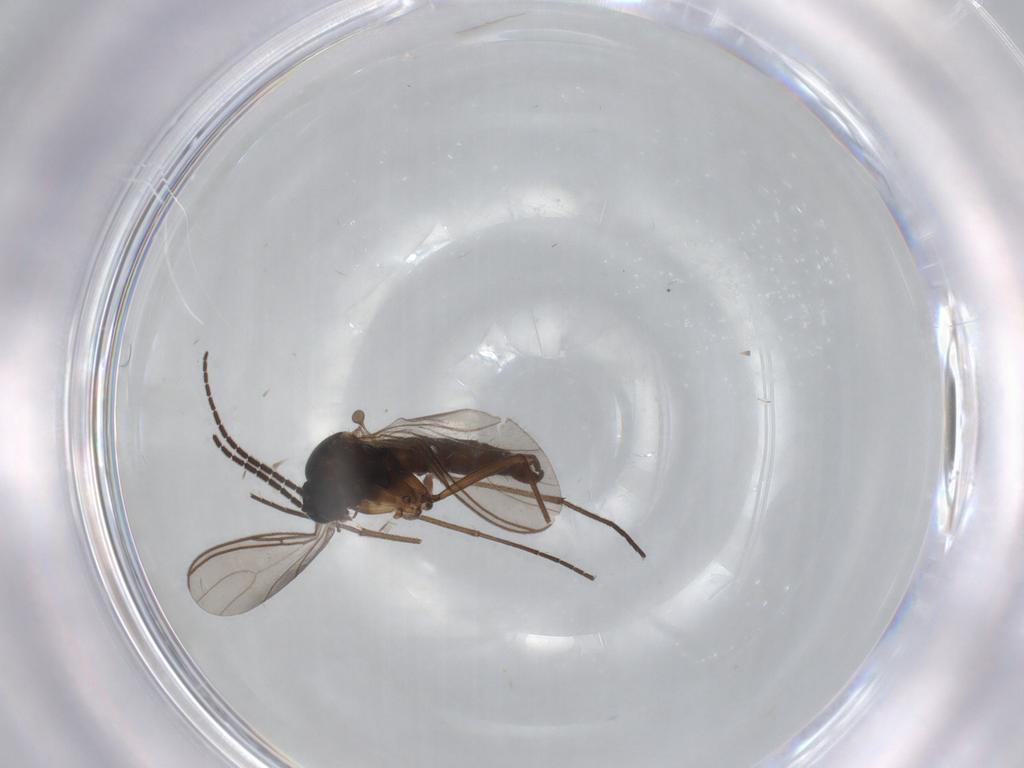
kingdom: Animalia
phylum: Arthropoda
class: Insecta
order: Diptera
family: Sciaridae
